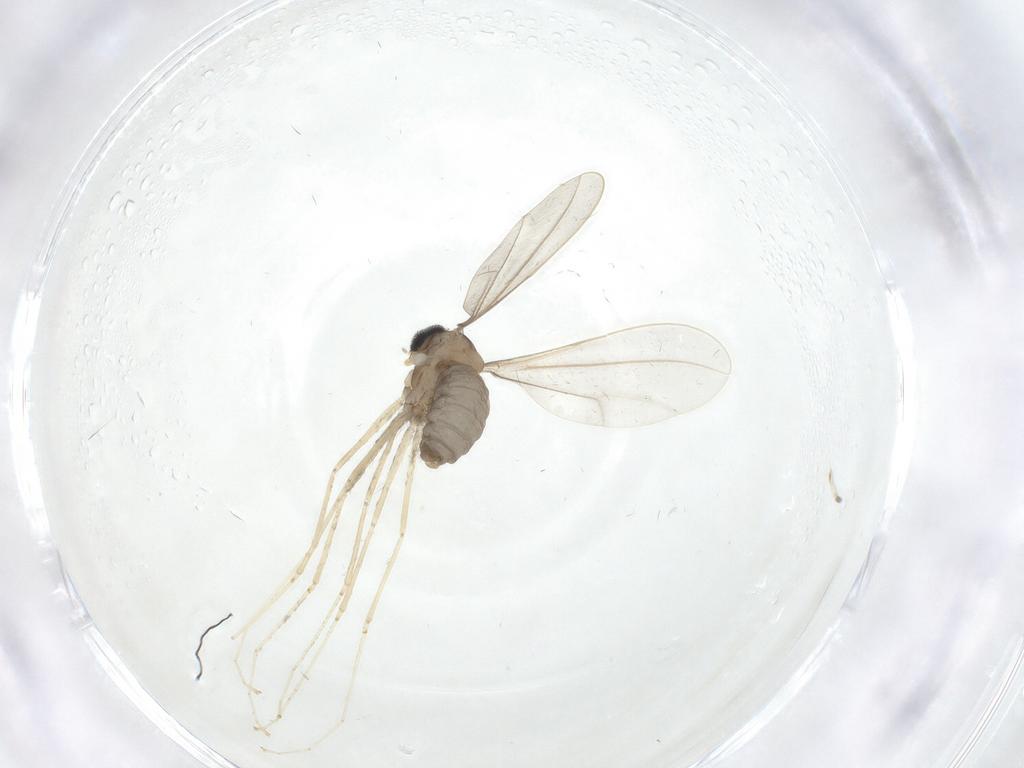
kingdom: Animalia
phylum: Arthropoda
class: Insecta
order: Diptera
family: Cecidomyiidae
